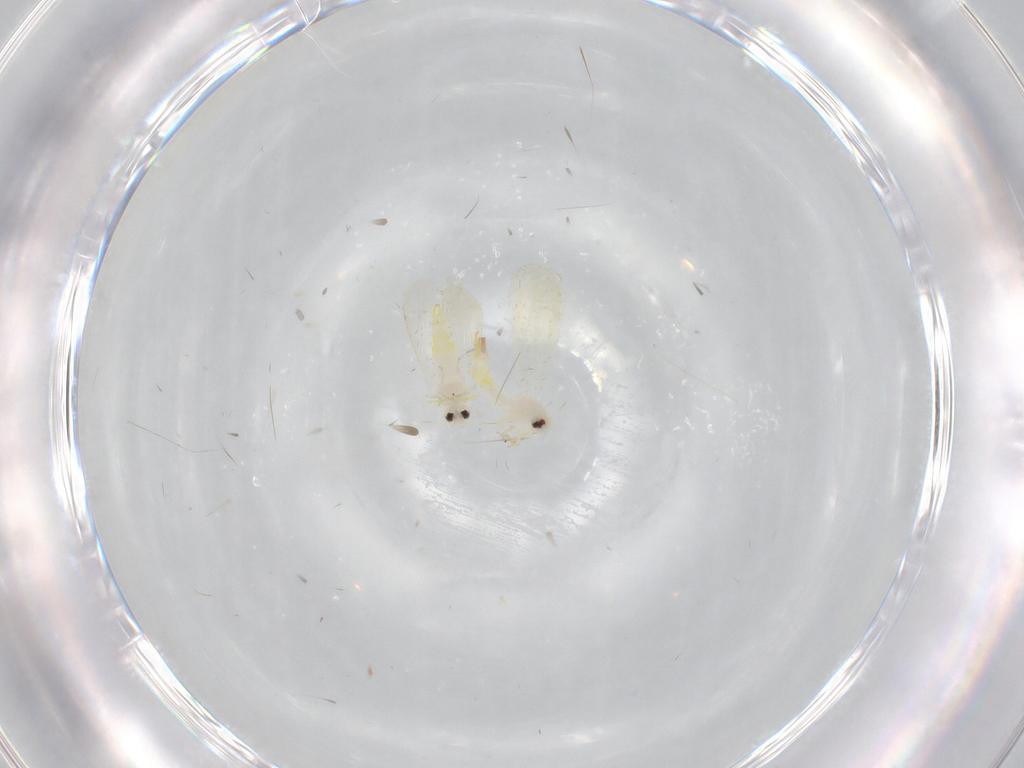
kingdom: Animalia
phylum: Arthropoda
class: Insecta
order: Hemiptera
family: Aleyrodidae
